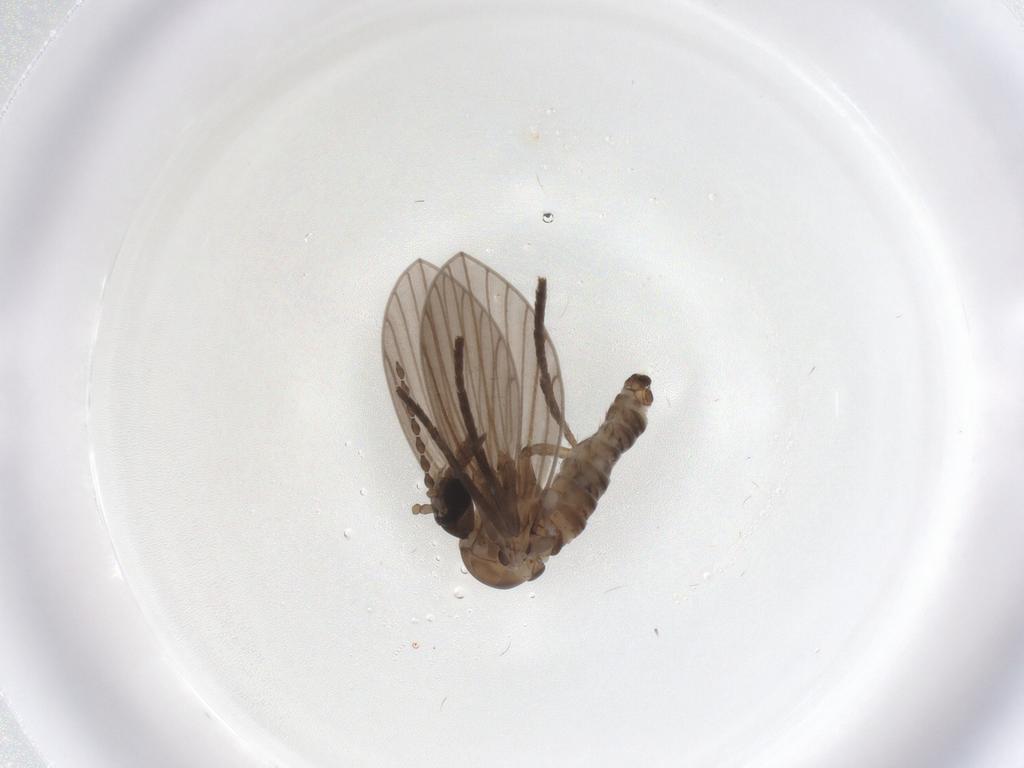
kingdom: Animalia
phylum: Arthropoda
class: Insecta
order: Diptera
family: Psychodidae
